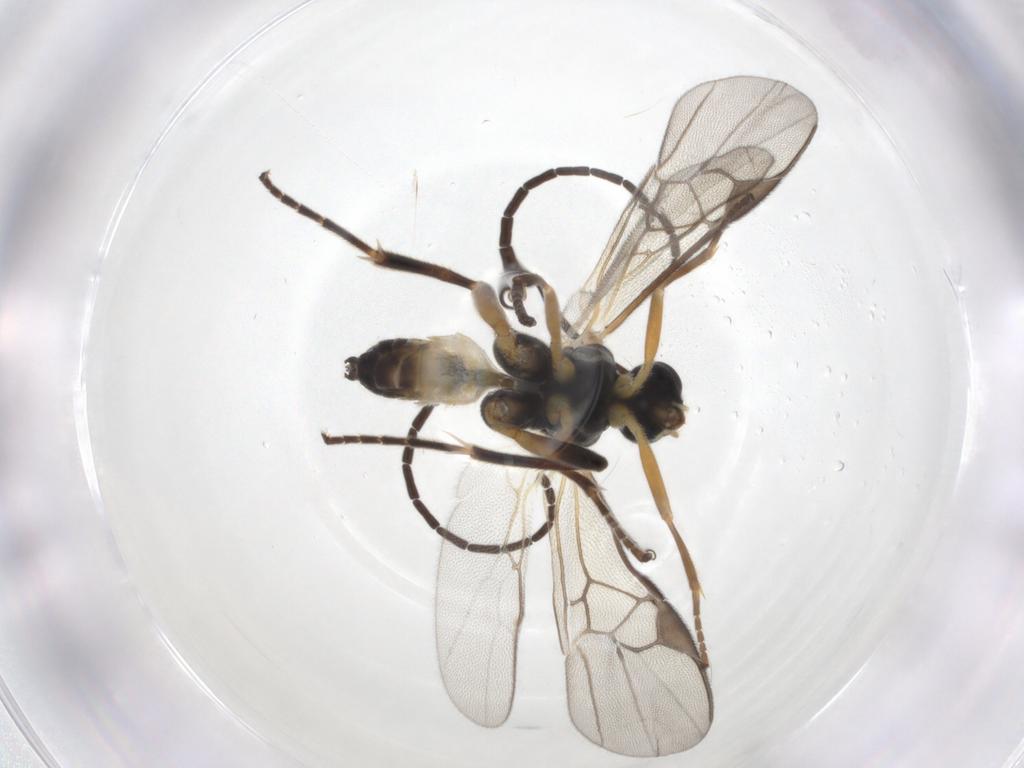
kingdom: Animalia
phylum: Arthropoda
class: Insecta
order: Hymenoptera
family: Braconidae
